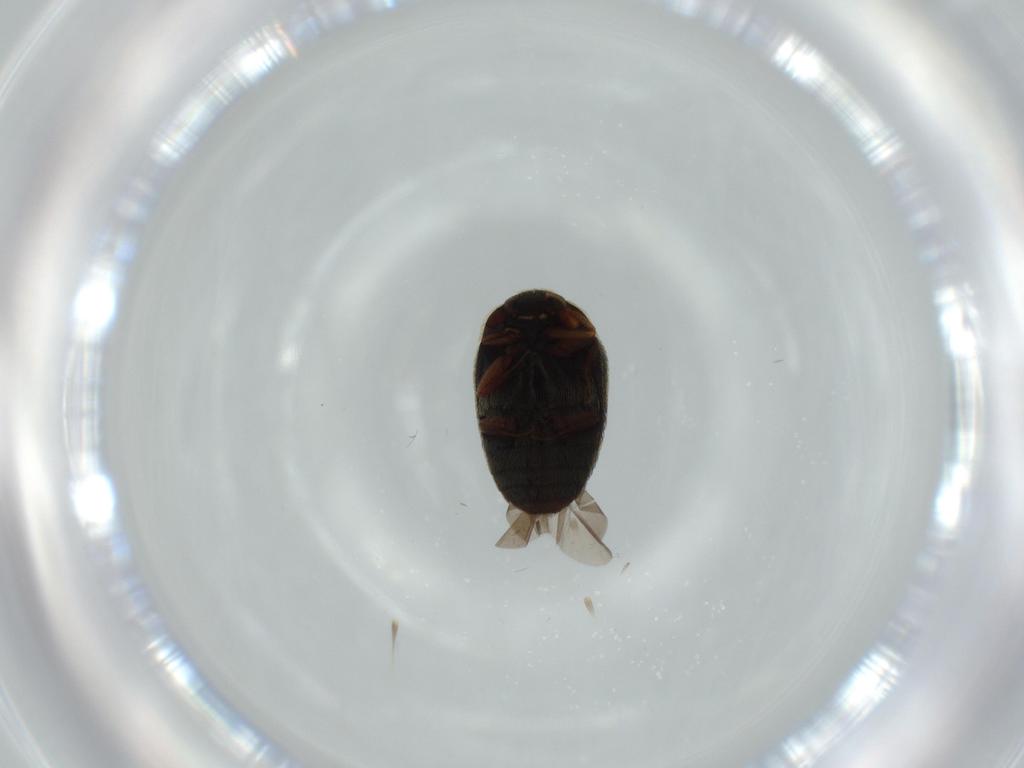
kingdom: Animalia
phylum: Arthropoda
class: Insecta
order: Coleoptera
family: Dermestidae
